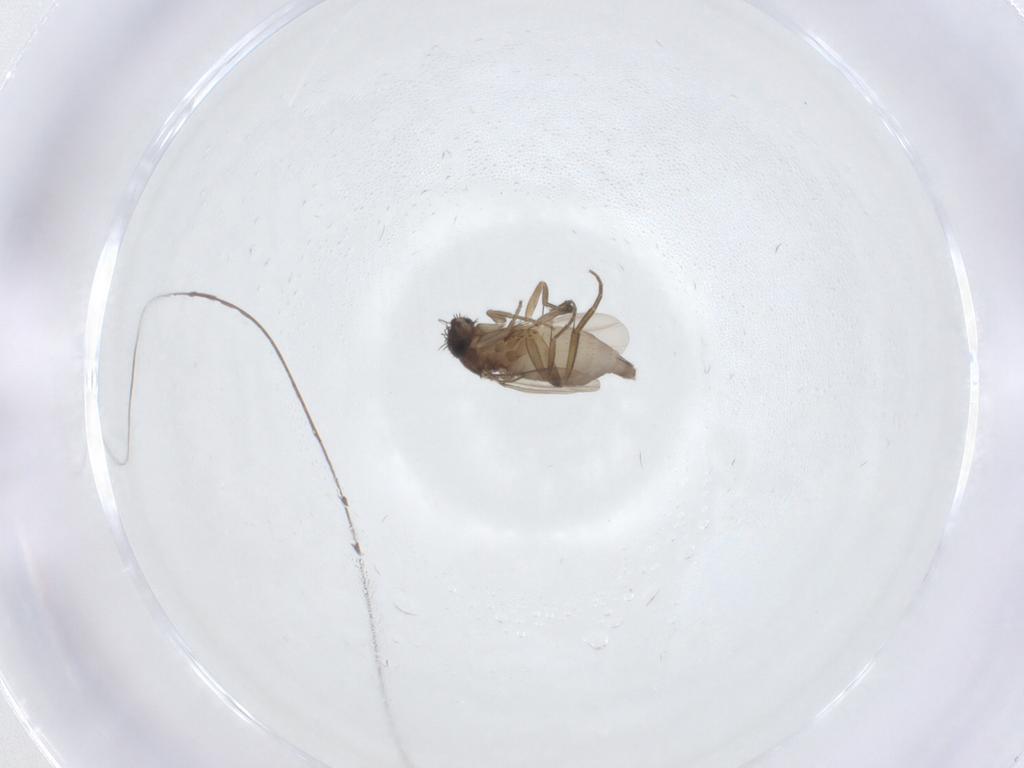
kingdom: Animalia
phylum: Arthropoda
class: Insecta
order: Diptera
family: Phoridae
